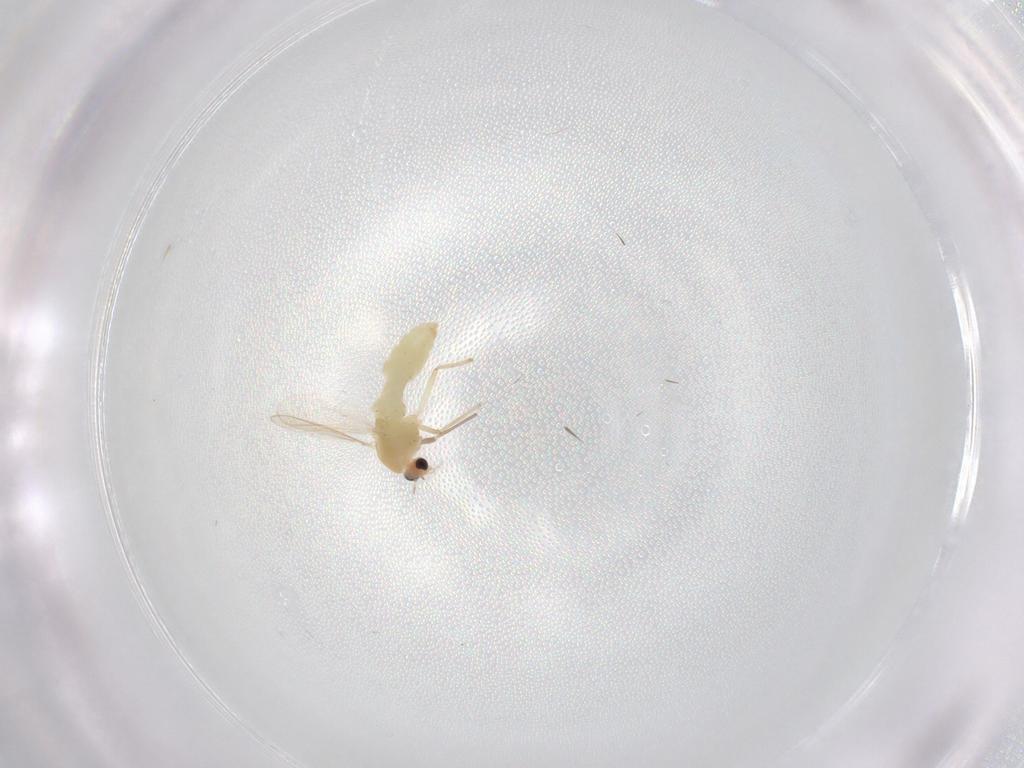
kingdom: Animalia
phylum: Arthropoda
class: Insecta
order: Diptera
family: Chironomidae
